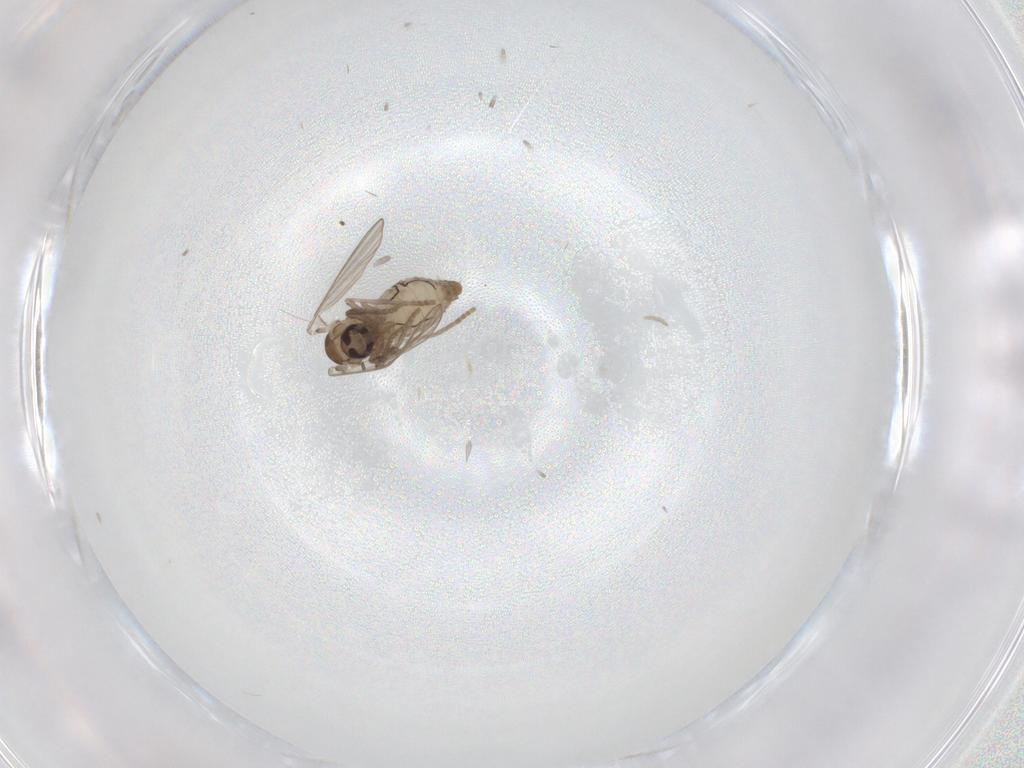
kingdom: Animalia
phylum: Arthropoda
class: Insecta
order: Diptera
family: Psychodidae
